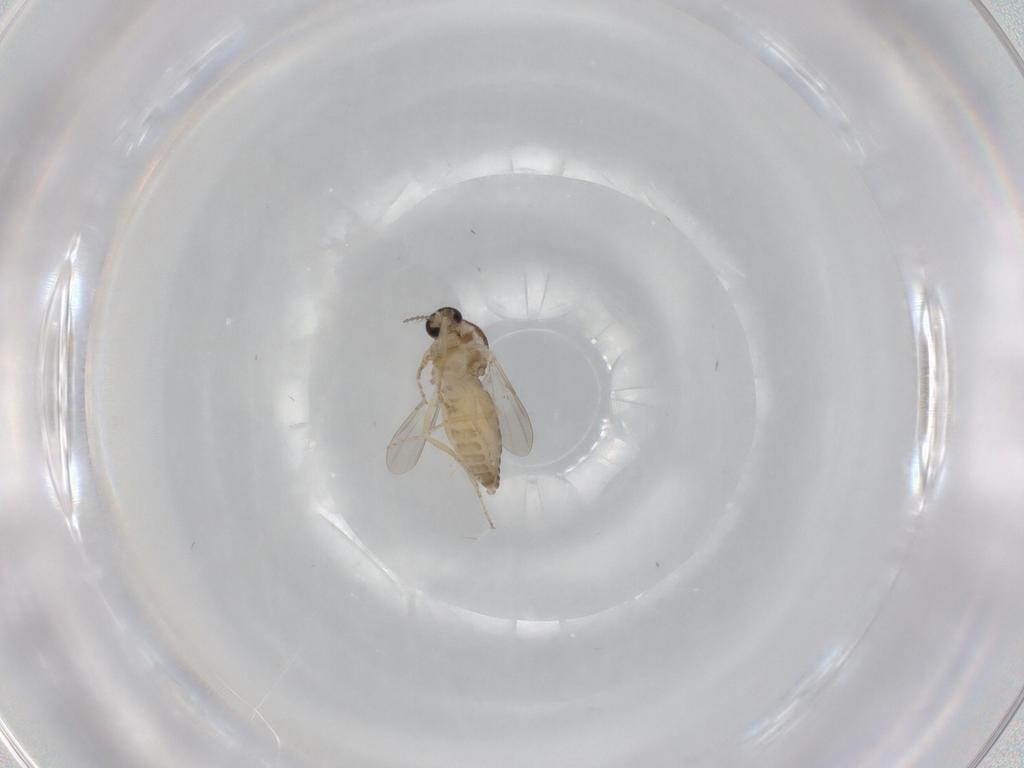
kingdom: Animalia
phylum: Arthropoda
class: Insecta
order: Diptera
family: Ceratopogonidae
